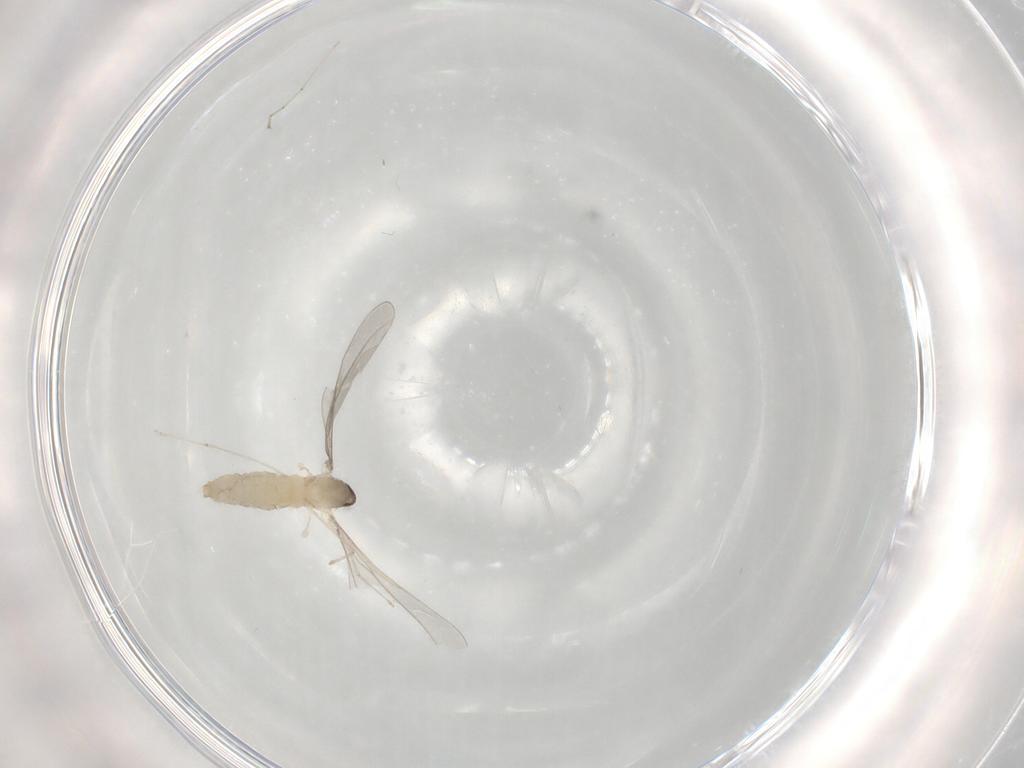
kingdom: Animalia
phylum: Arthropoda
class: Insecta
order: Diptera
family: Cecidomyiidae
